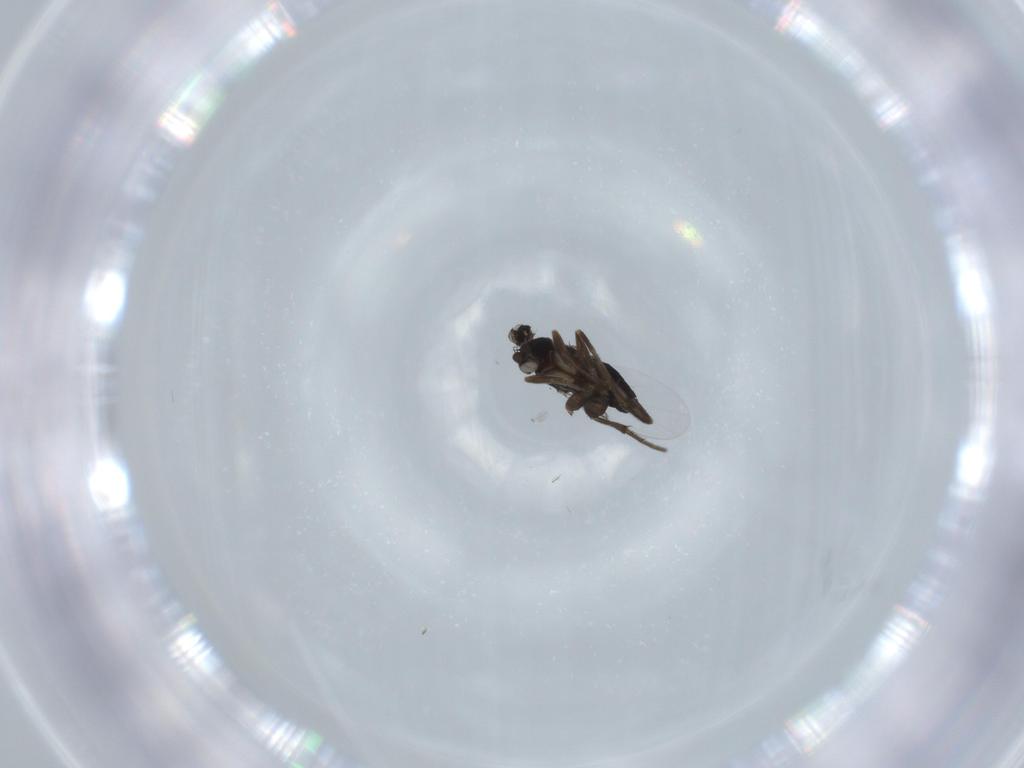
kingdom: Animalia
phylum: Arthropoda
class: Insecta
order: Diptera
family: Phoridae
